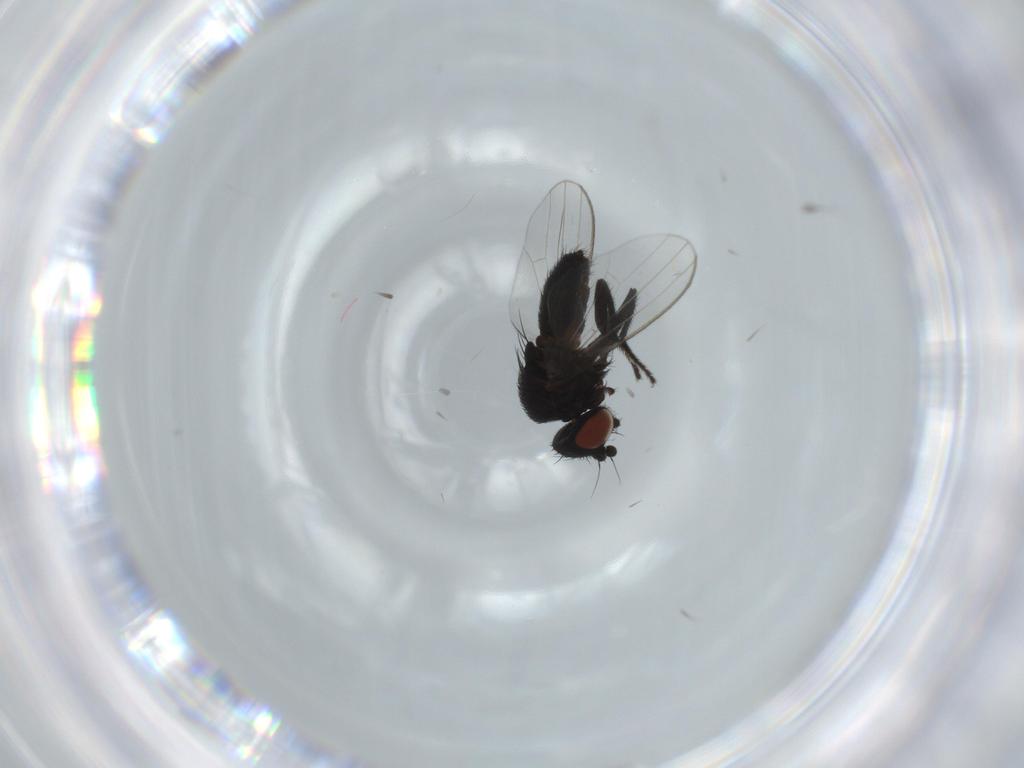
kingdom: Animalia
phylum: Arthropoda
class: Insecta
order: Diptera
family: Milichiidae
